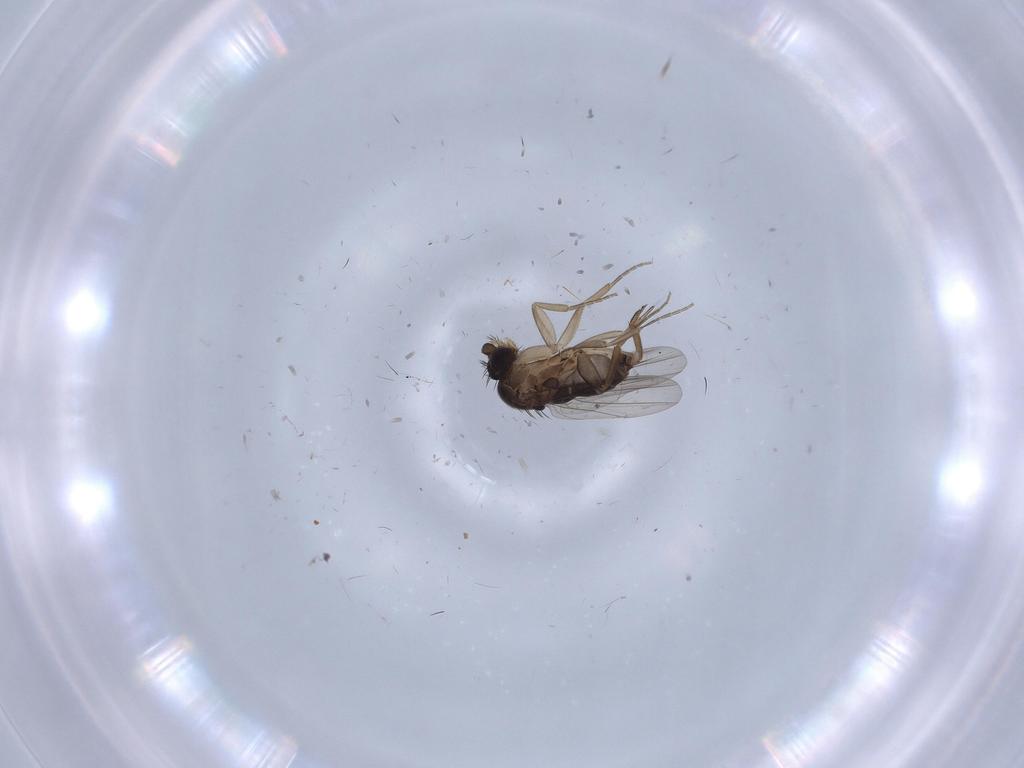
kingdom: Animalia
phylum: Arthropoda
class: Insecta
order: Diptera
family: Phoridae
